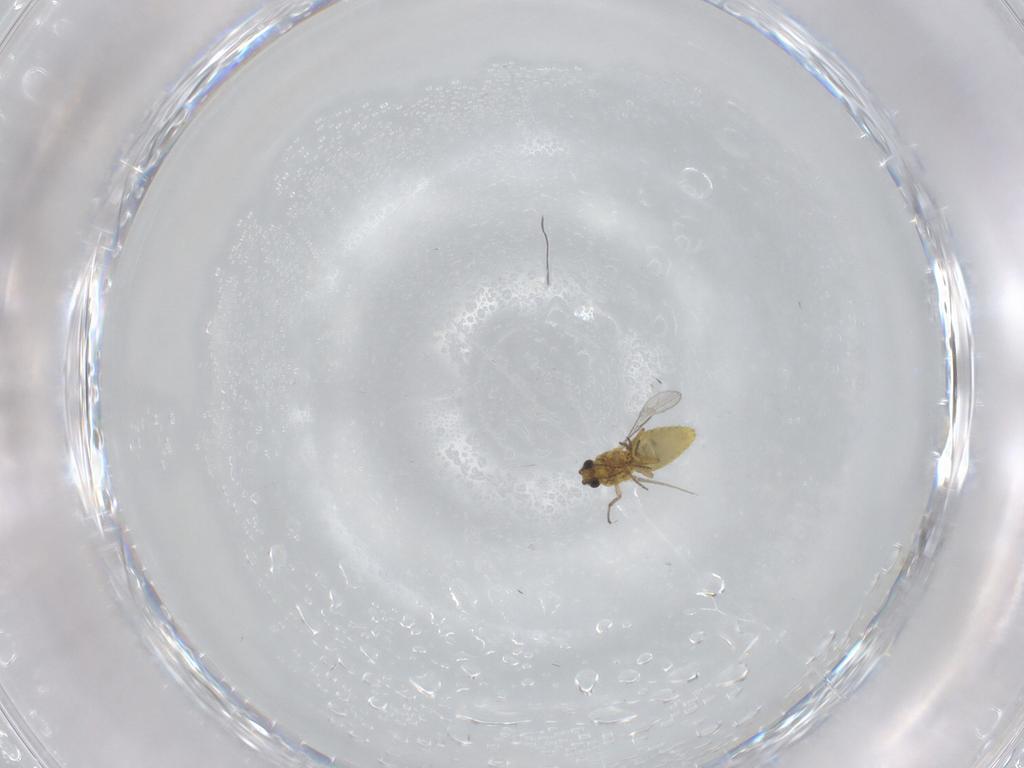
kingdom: Animalia
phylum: Arthropoda
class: Insecta
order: Diptera
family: Ceratopogonidae
